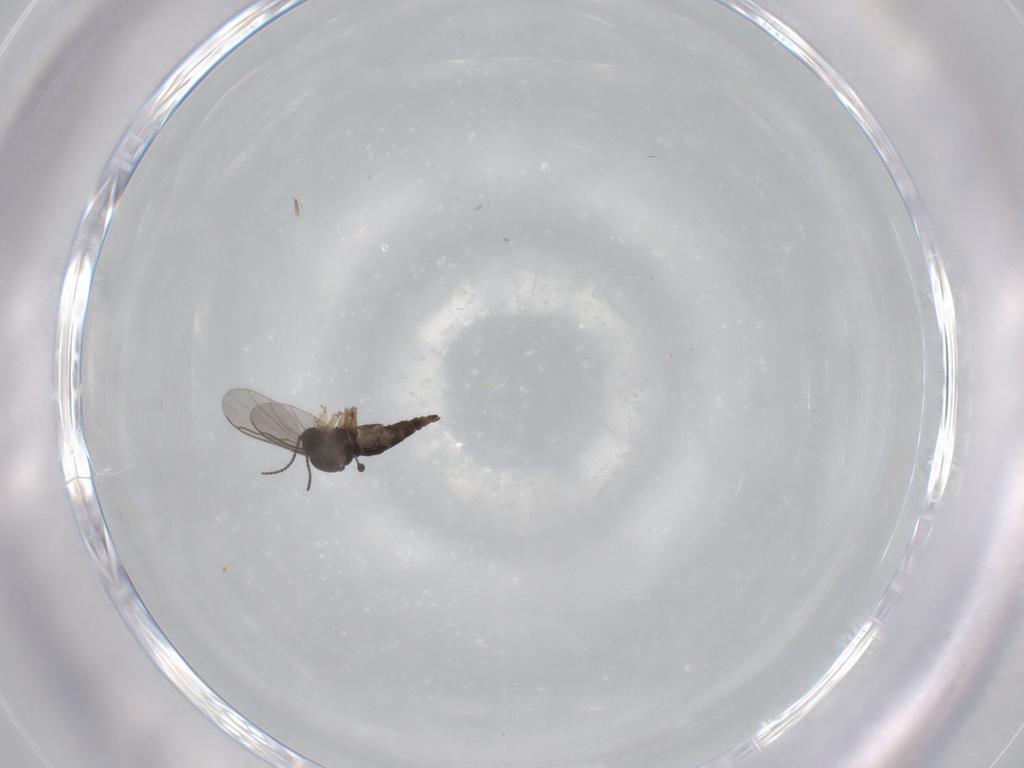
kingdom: Animalia
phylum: Arthropoda
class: Insecta
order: Diptera
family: Sciaridae
